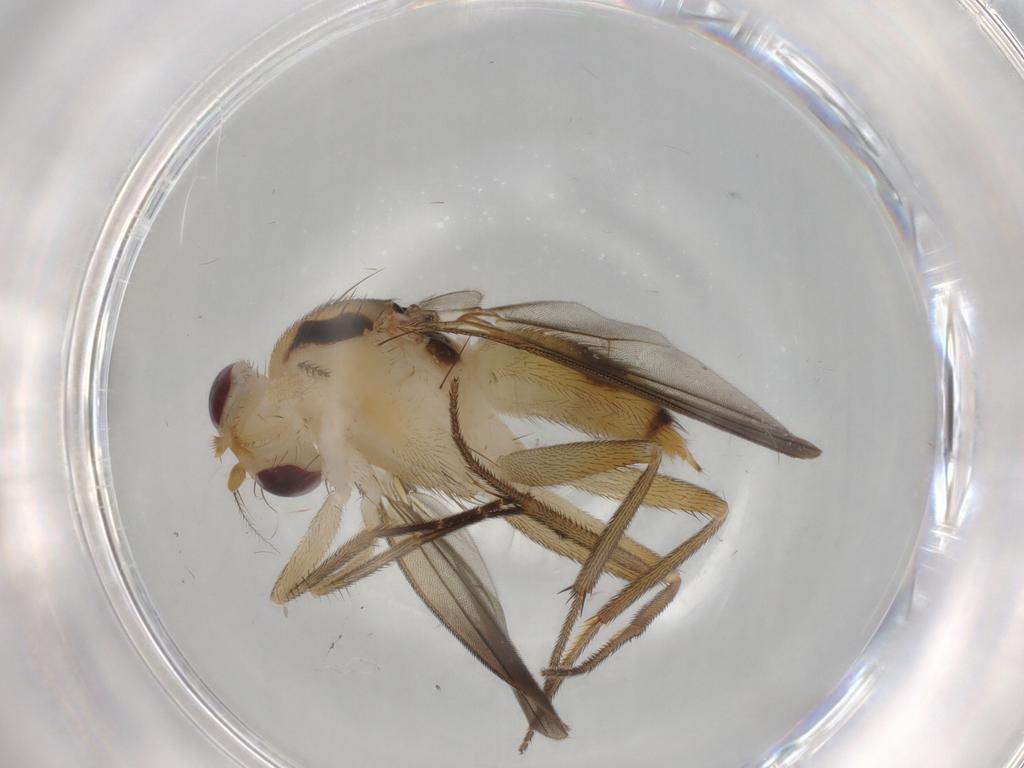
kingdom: Animalia
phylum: Arthropoda
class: Insecta
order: Diptera
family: Clusiidae
